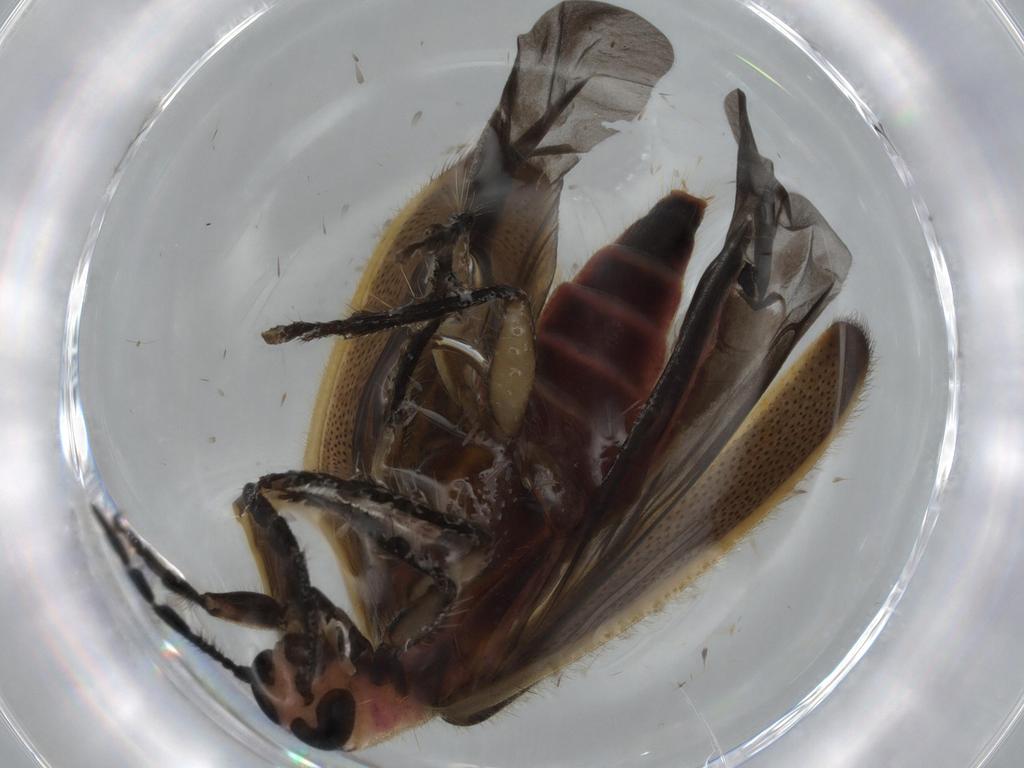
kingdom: Animalia
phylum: Arthropoda
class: Insecta
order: Coleoptera
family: Cleridae
